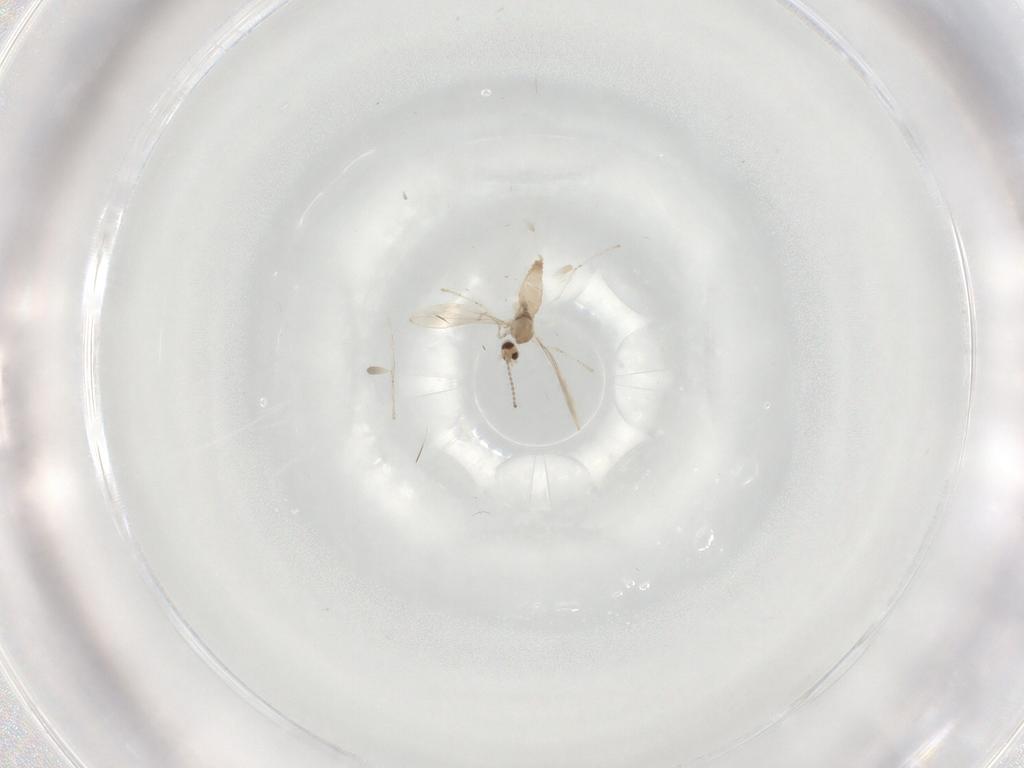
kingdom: Animalia
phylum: Arthropoda
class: Insecta
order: Diptera
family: Cecidomyiidae
